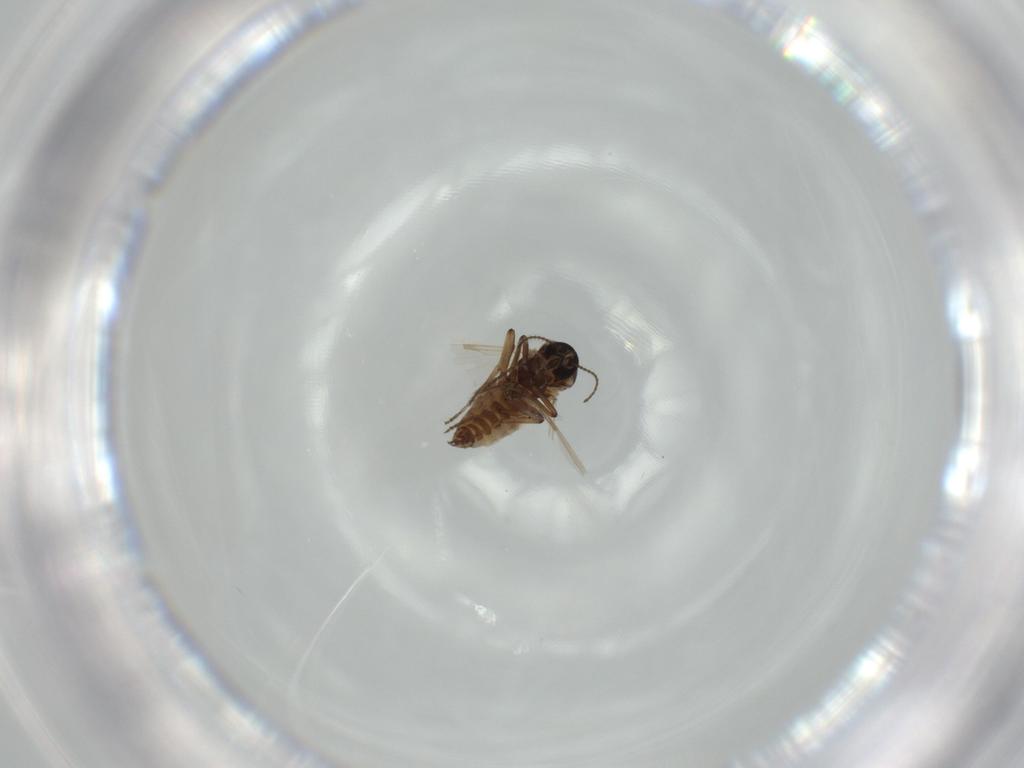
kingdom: Animalia
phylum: Arthropoda
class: Insecta
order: Diptera
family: Ceratopogonidae
